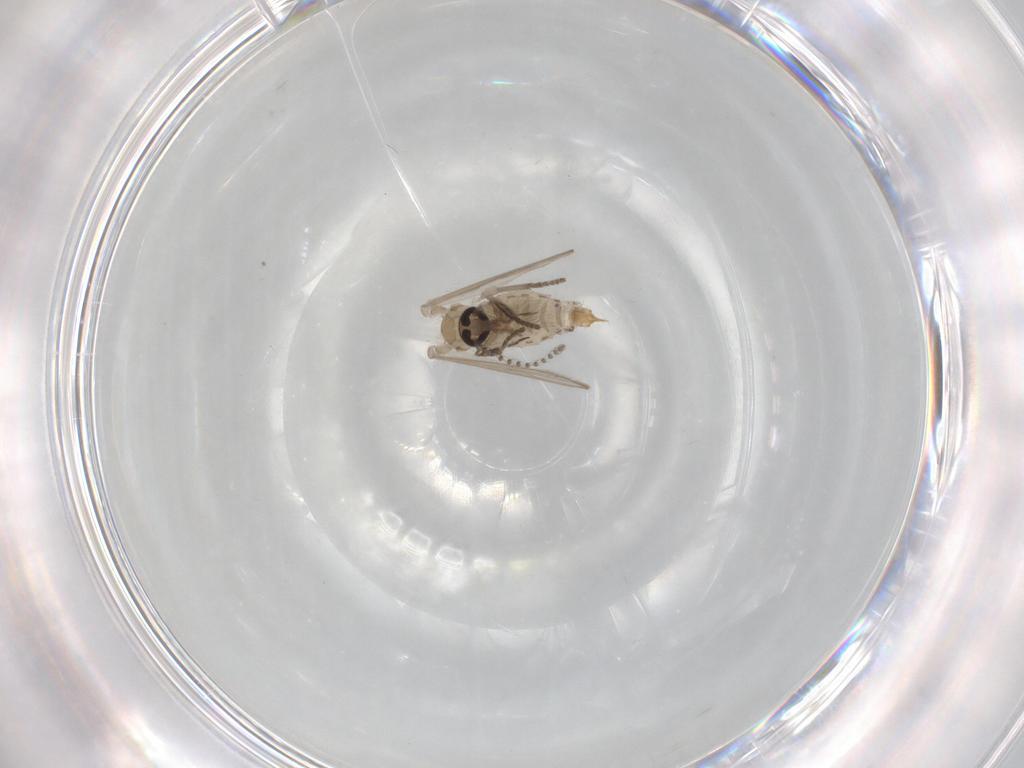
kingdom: Animalia
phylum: Arthropoda
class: Insecta
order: Diptera
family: Psychodidae
